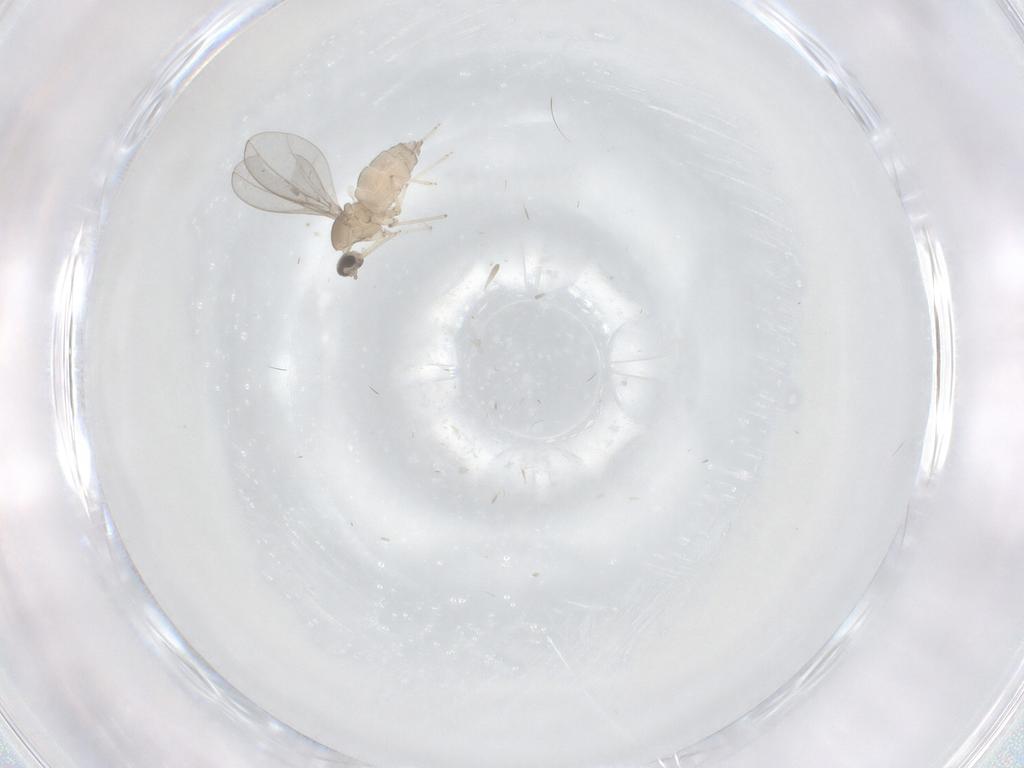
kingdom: Animalia
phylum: Arthropoda
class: Insecta
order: Diptera
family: Cecidomyiidae
